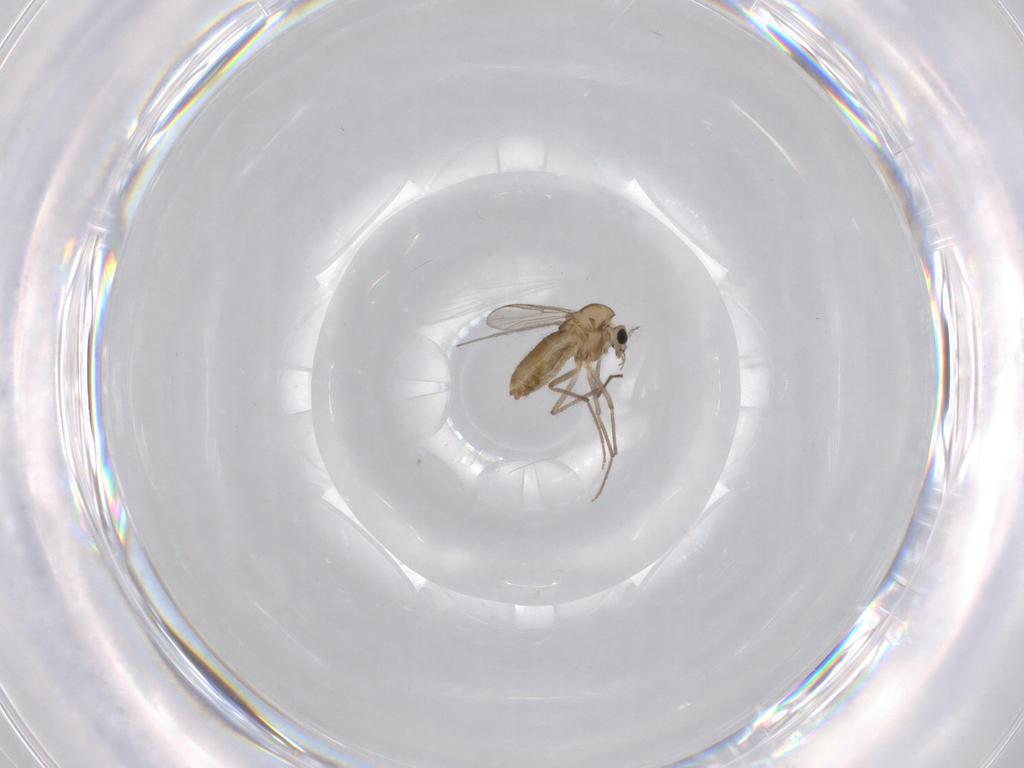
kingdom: Animalia
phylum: Arthropoda
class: Insecta
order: Diptera
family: Chironomidae
